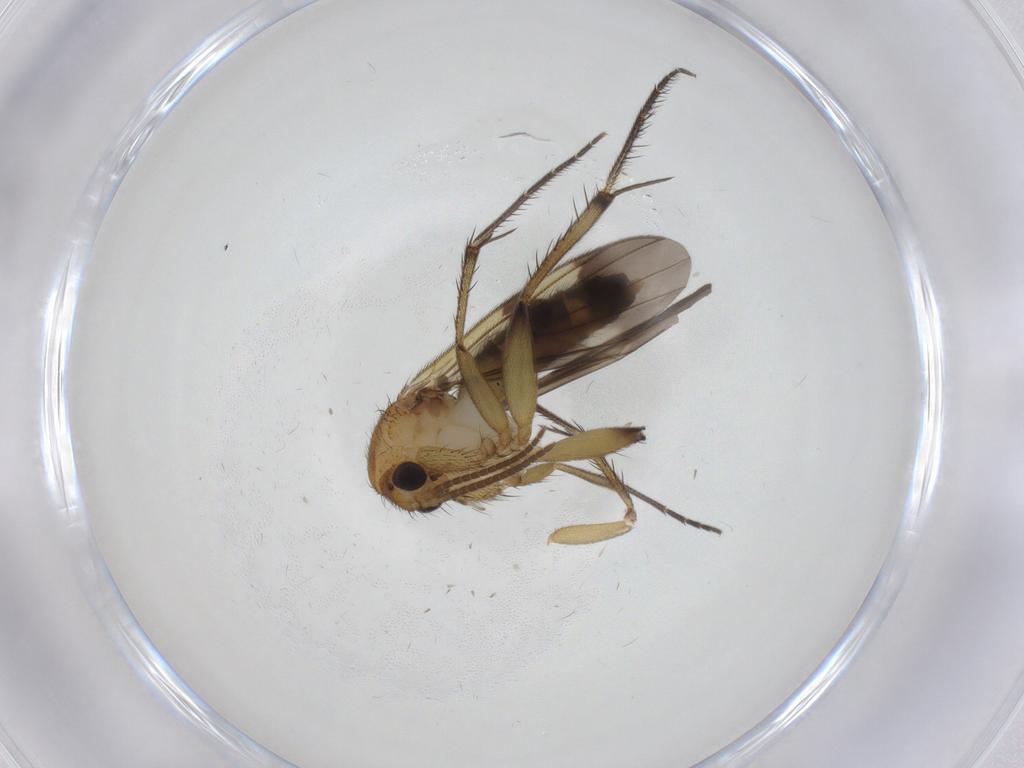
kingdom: Animalia
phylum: Arthropoda
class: Insecta
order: Diptera
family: Mycetophilidae
